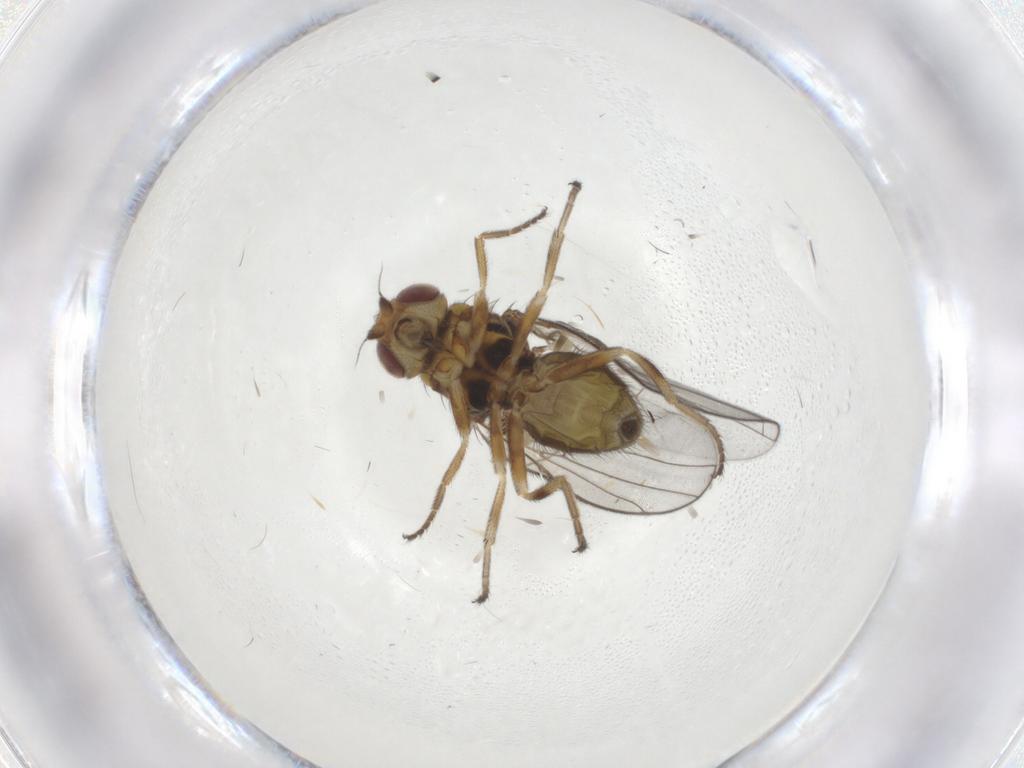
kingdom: Animalia
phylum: Arthropoda
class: Insecta
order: Diptera
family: Chloropidae
